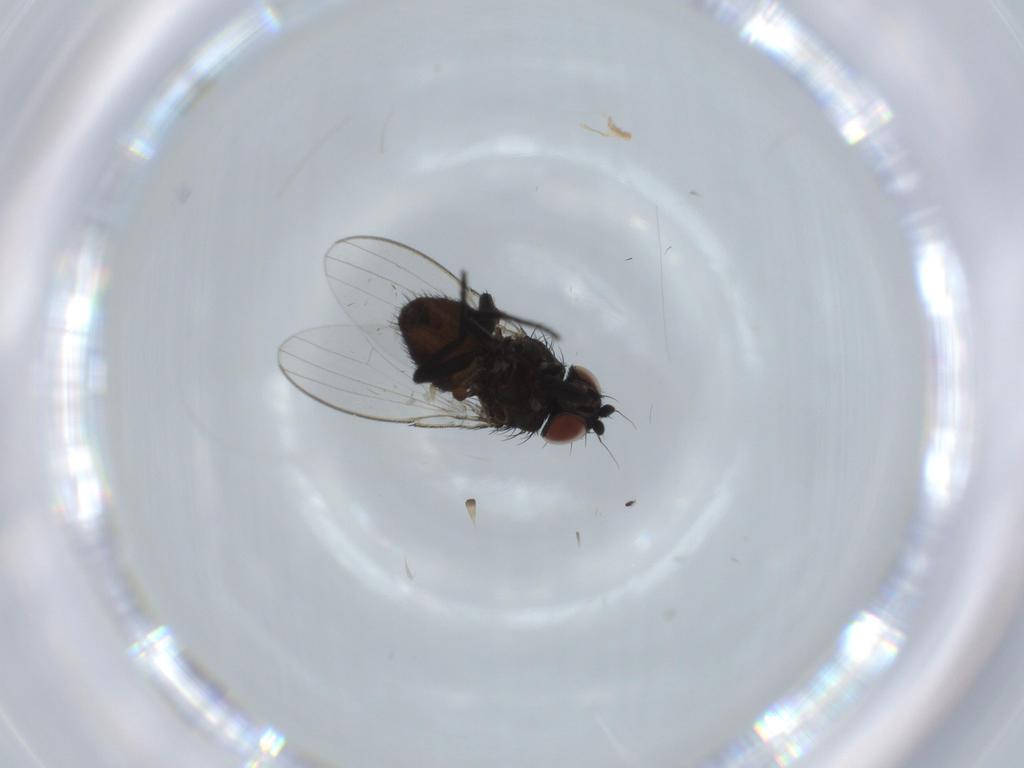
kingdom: Animalia
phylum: Arthropoda
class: Insecta
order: Diptera
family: Milichiidae
